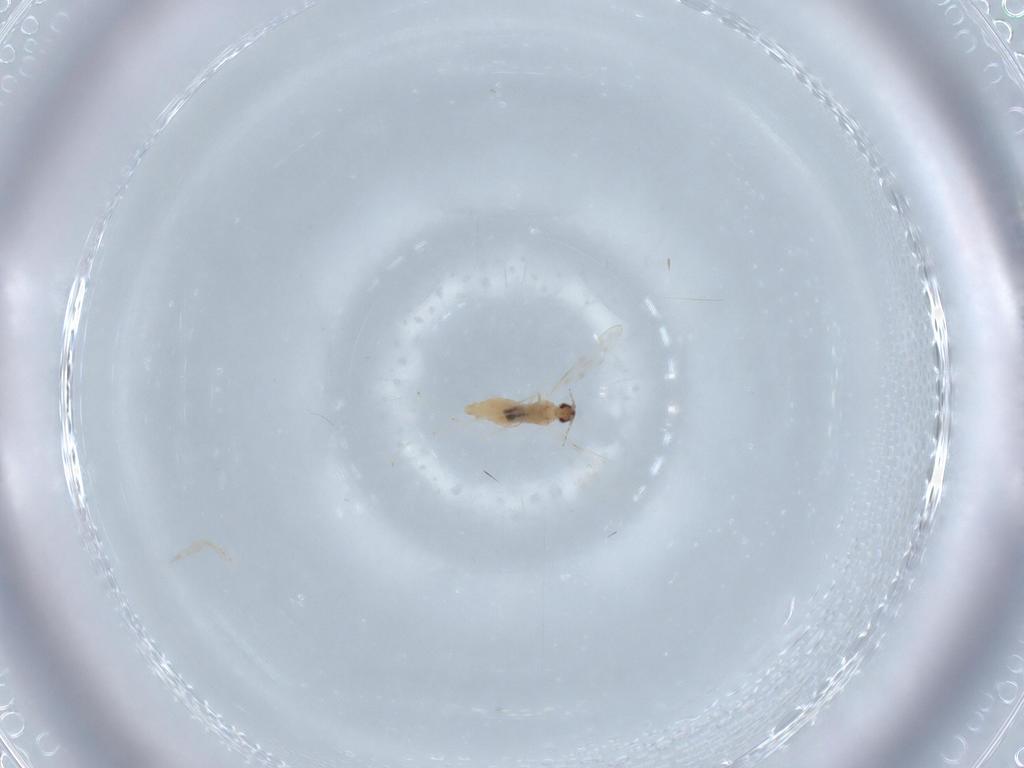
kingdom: Animalia
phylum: Arthropoda
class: Insecta
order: Diptera
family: Cecidomyiidae
